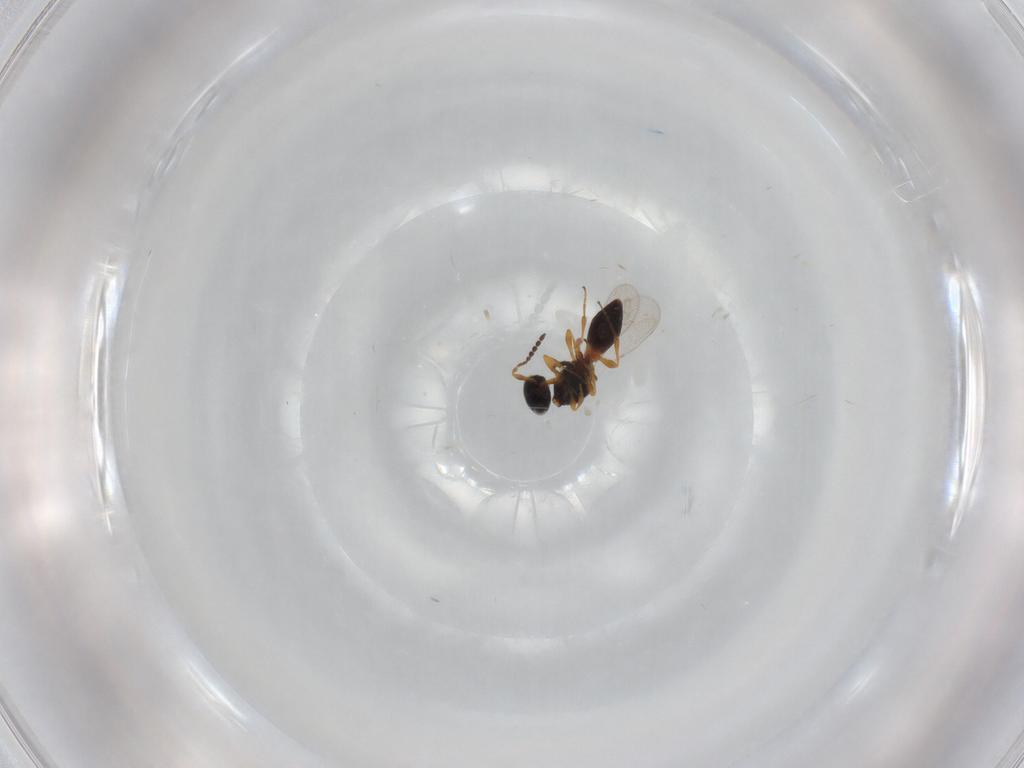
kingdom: Animalia
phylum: Arthropoda
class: Insecta
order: Hymenoptera
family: Platygastridae
